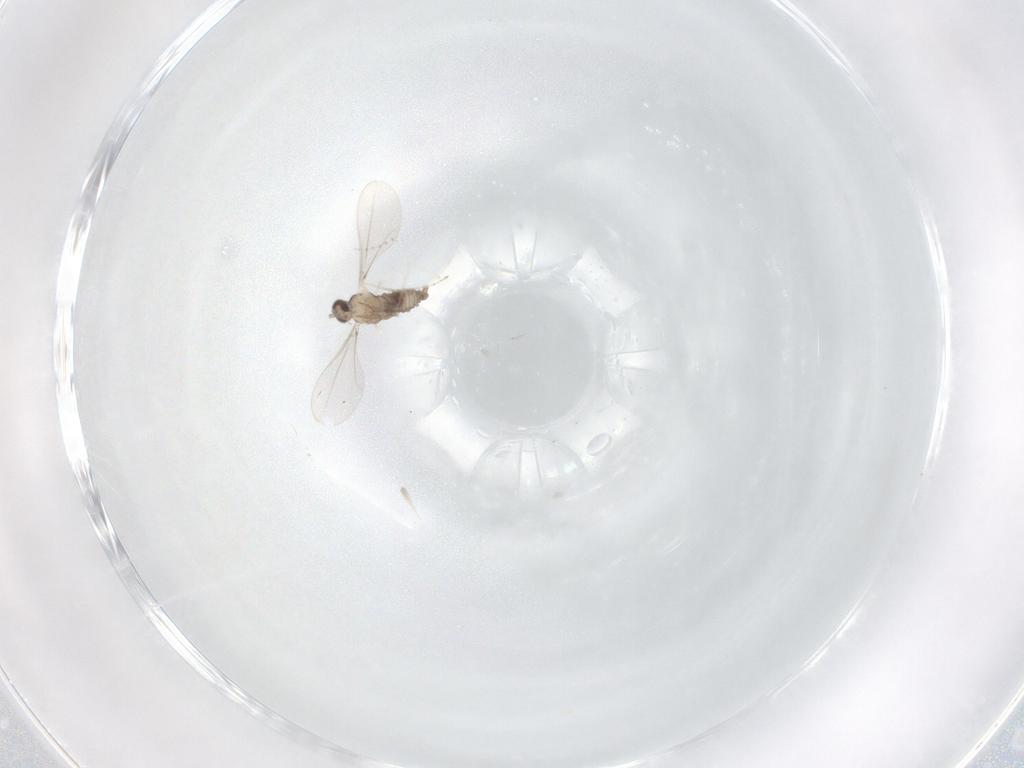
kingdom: Animalia
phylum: Arthropoda
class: Insecta
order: Diptera
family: Cecidomyiidae
